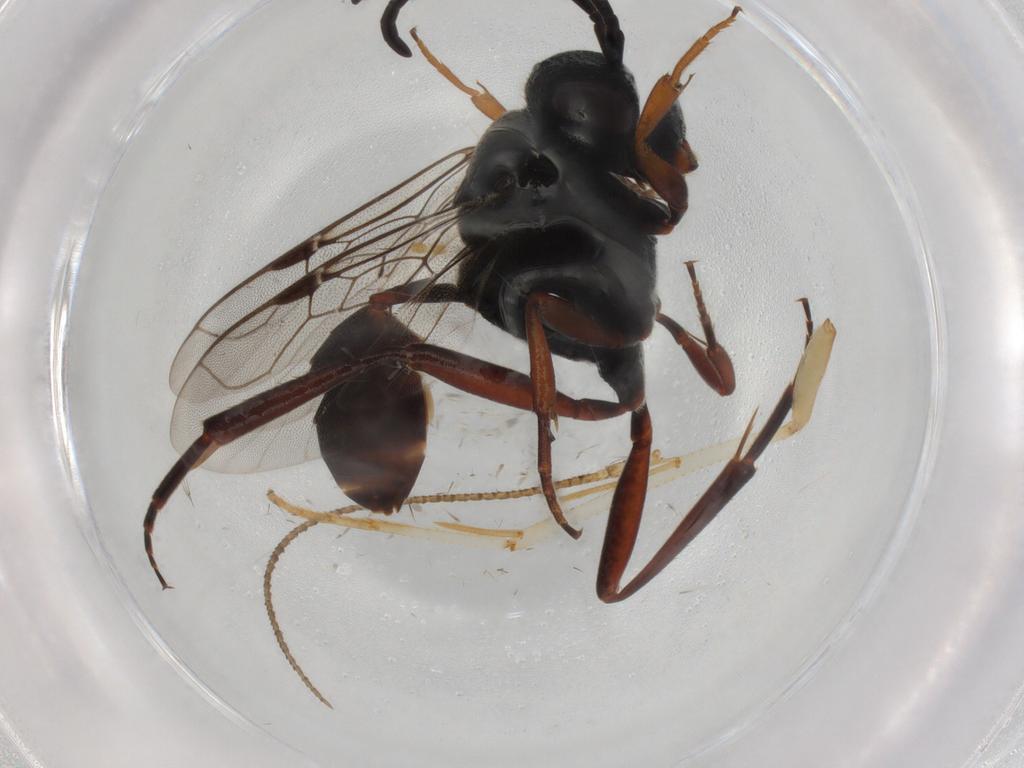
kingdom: Animalia
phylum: Arthropoda
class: Insecta
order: Hymenoptera
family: Evaniidae
